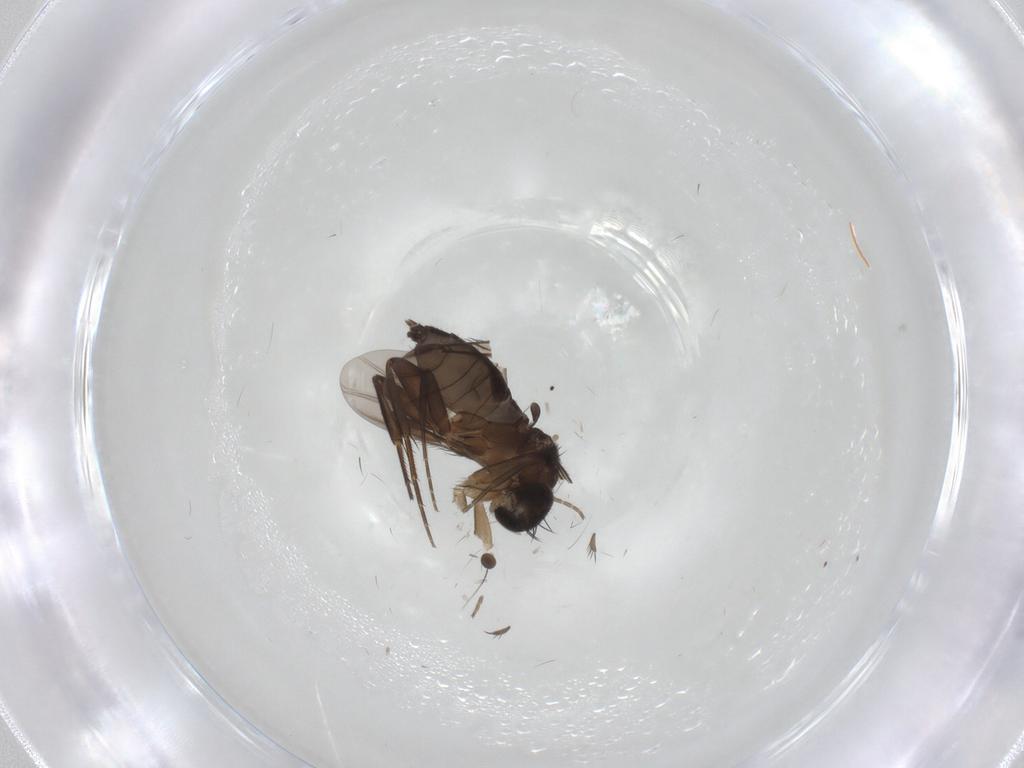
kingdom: Animalia
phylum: Arthropoda
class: Insecta
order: Diptera
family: Phoridae
